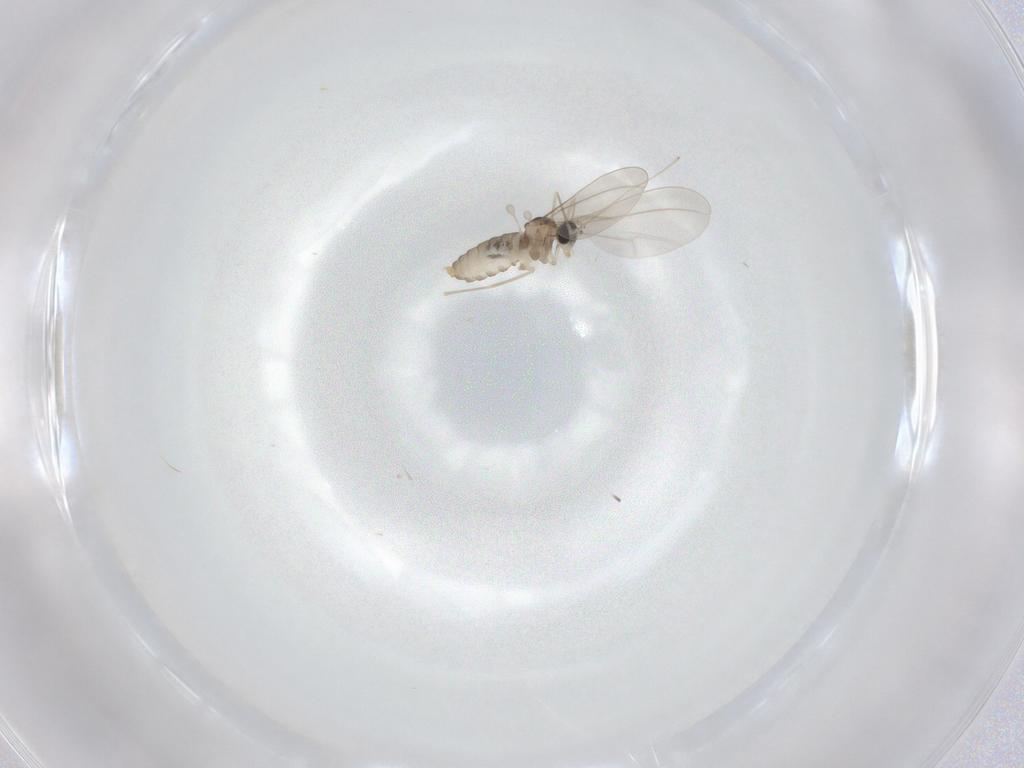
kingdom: Animalia
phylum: Arthropoda
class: Insecta
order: Diptera
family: Cecidomyiidae
